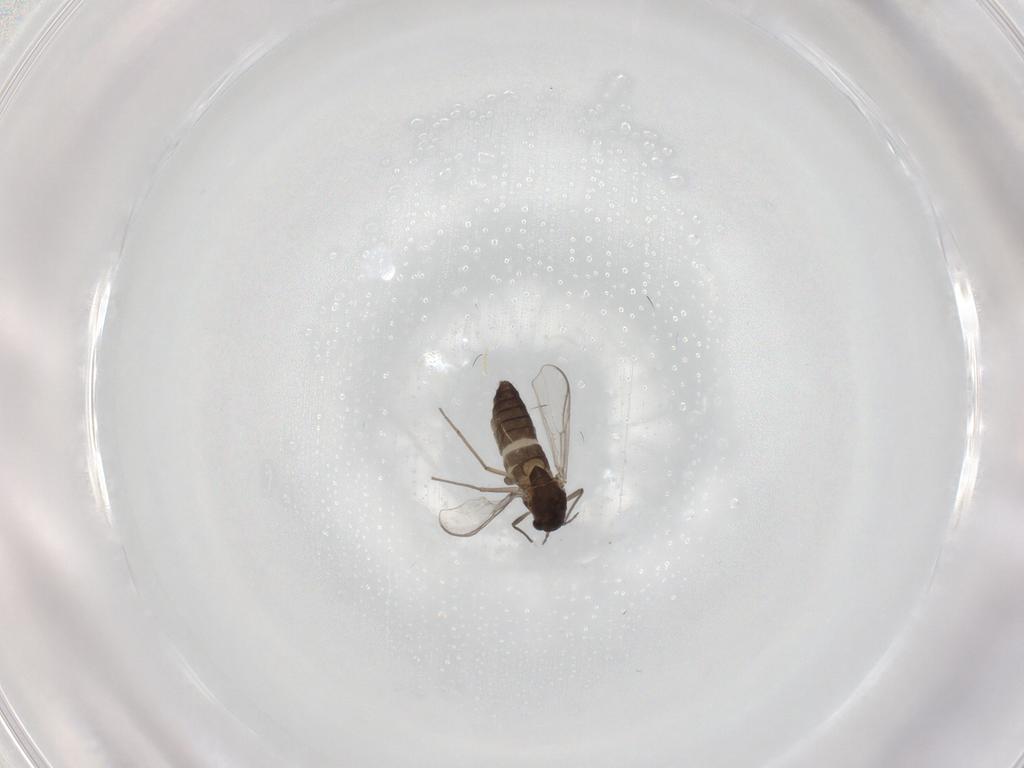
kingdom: Animalia
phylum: Arthropoda
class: Insecta
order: Diptera
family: Chironomidae
